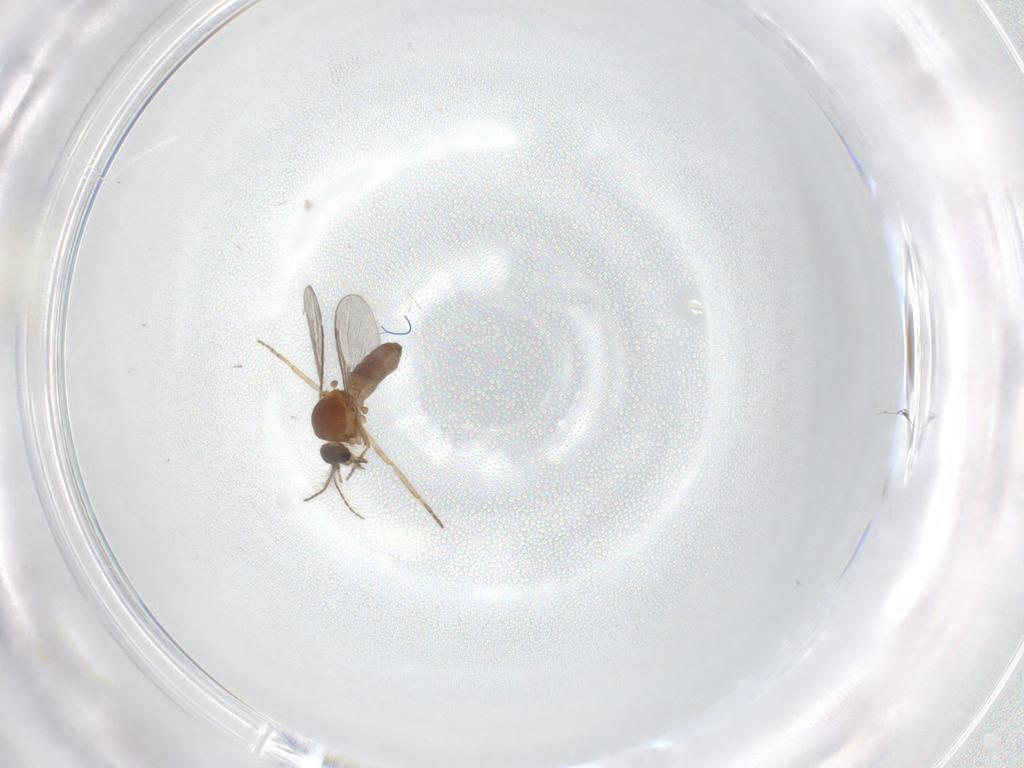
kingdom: Animalia
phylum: Arthropoda
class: Insecta
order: Diptera
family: Ceratopogonidae
